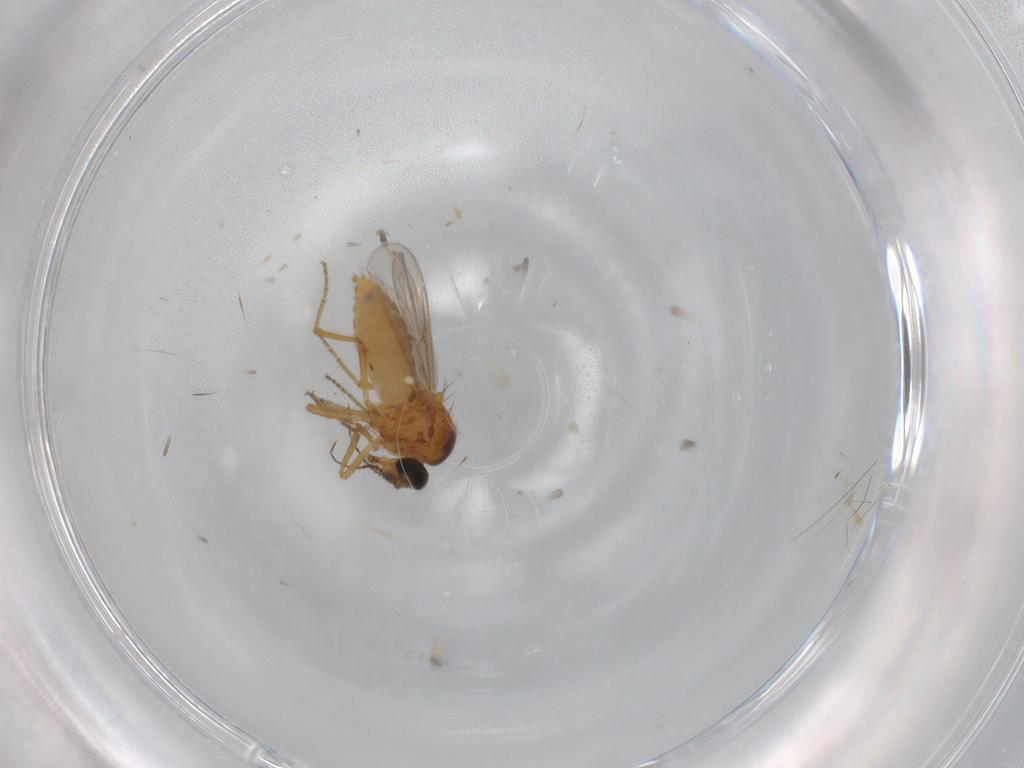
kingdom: Animalia
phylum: Arthropoda
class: Insecta
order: Diptera
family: Ceratopogonidae
